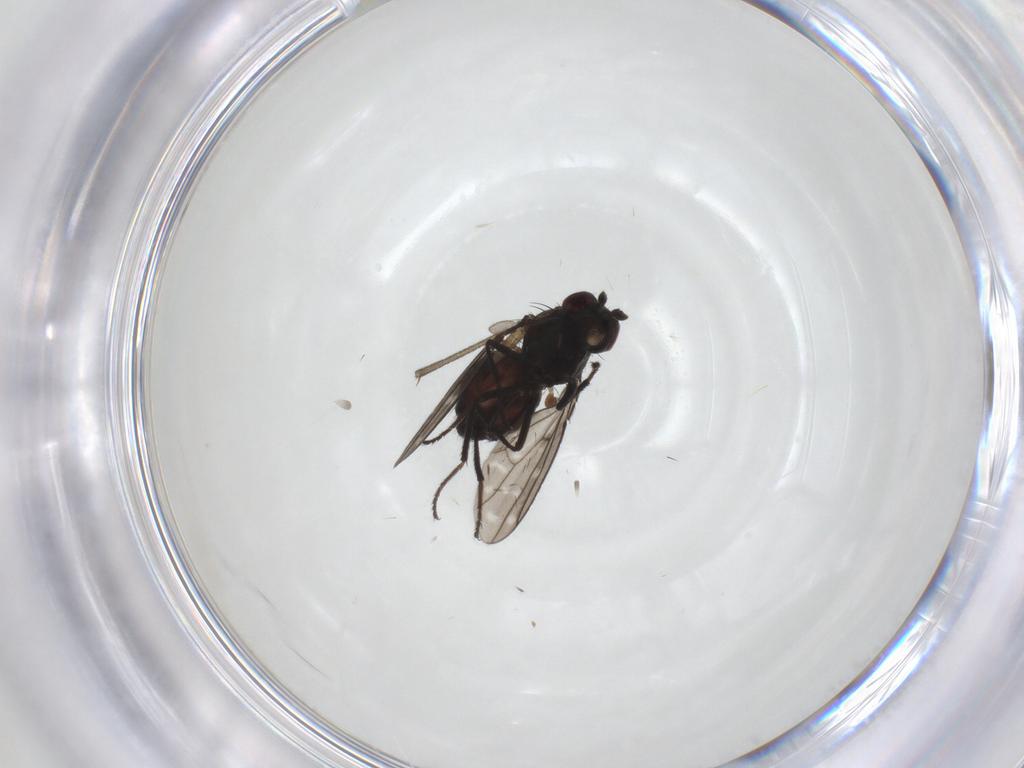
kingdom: Animalia
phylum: Arthropoda
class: Insecta
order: Diptera
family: Ephydridae
